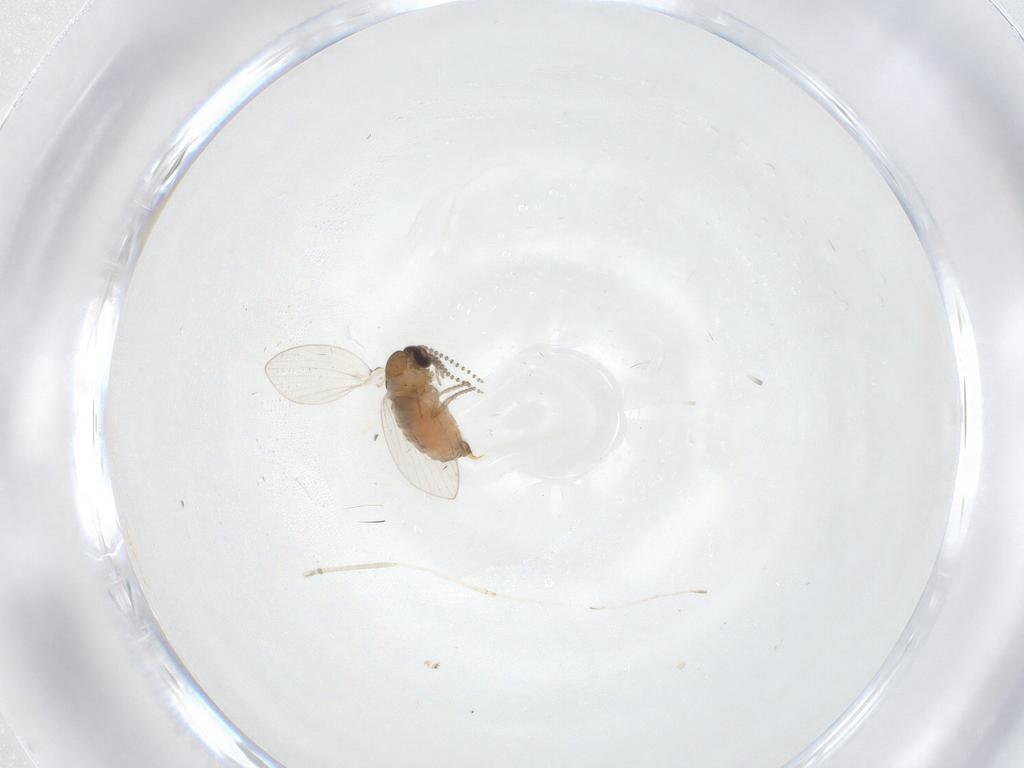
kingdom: Animalia
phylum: Arthropoda
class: Insecta
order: Diptera
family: Psychodidae
